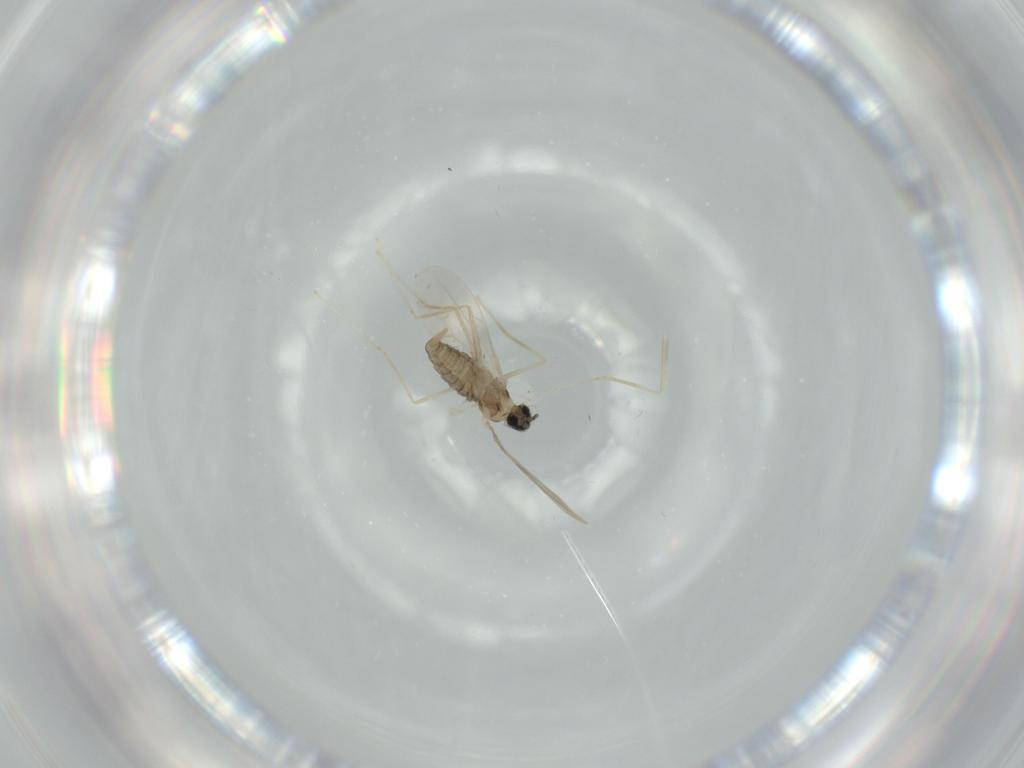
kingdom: Animalia
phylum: Arthropoda
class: Insecta
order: Diptera
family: Cecidomyiidae
